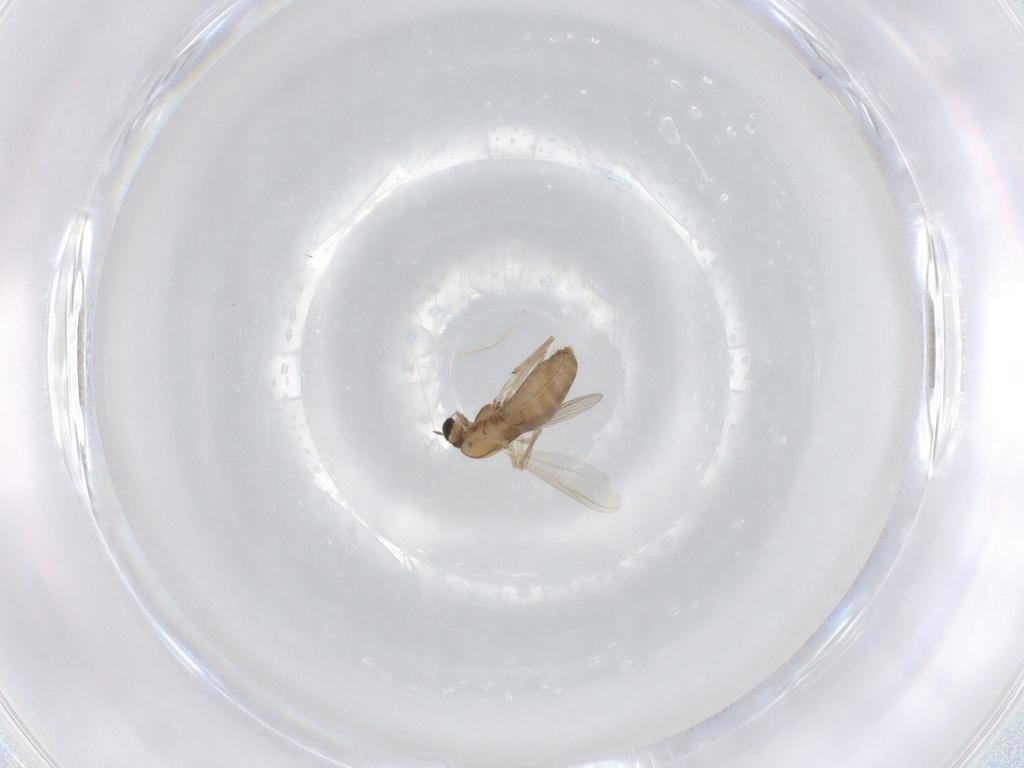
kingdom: Animalia
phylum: Arthropoda
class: Insecta
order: Diptera
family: Chironomidae
